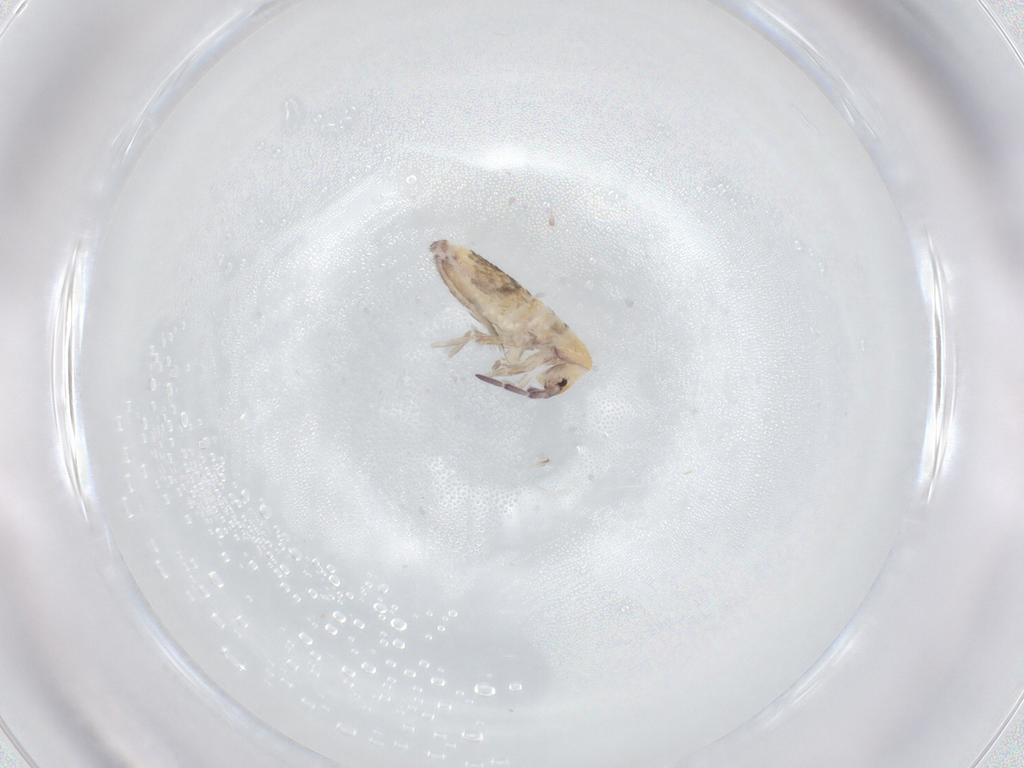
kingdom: Animalia
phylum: Arthropoda
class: Collembola
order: Entomobryomorpha
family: Entomobryidae
